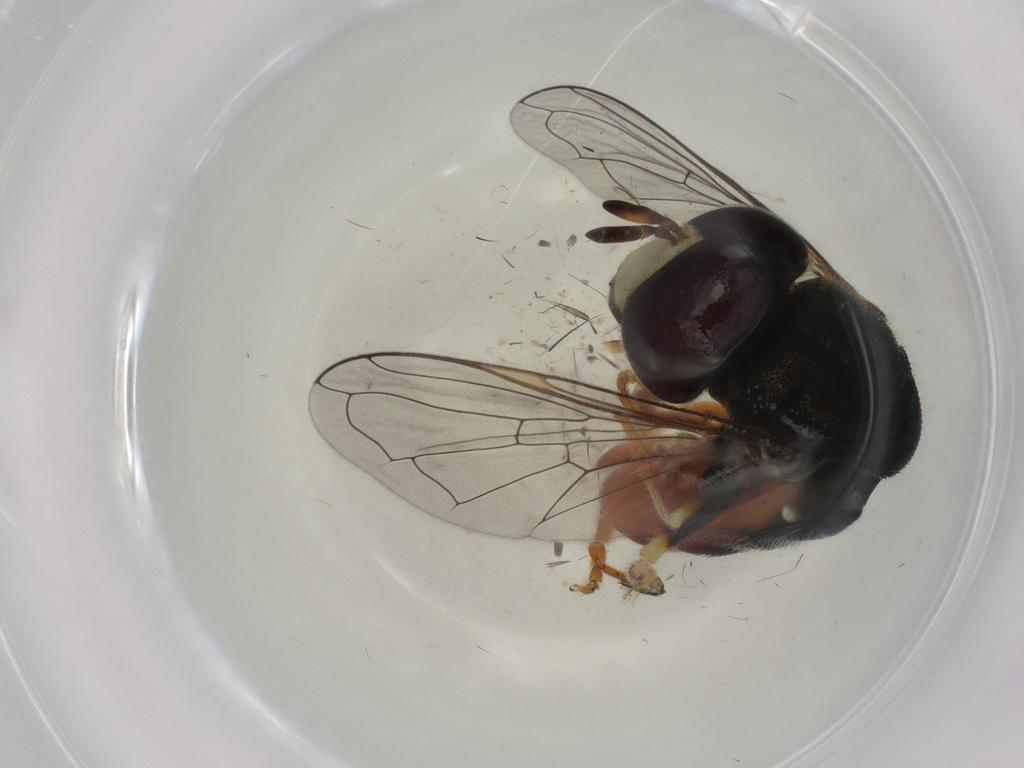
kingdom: Animalia
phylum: Arthropoda
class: Insecta
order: Diptera
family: Syrphidae
